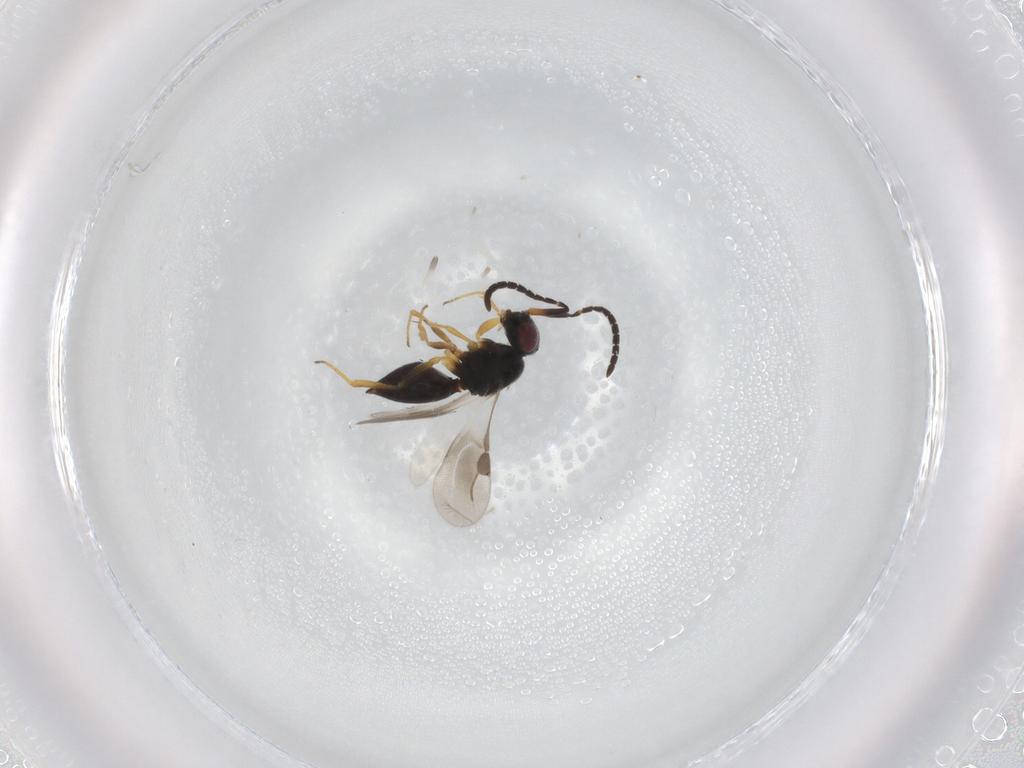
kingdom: Animalia
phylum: Arthropoda
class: Insecta
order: Hymenoptera
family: Megaspilidae
